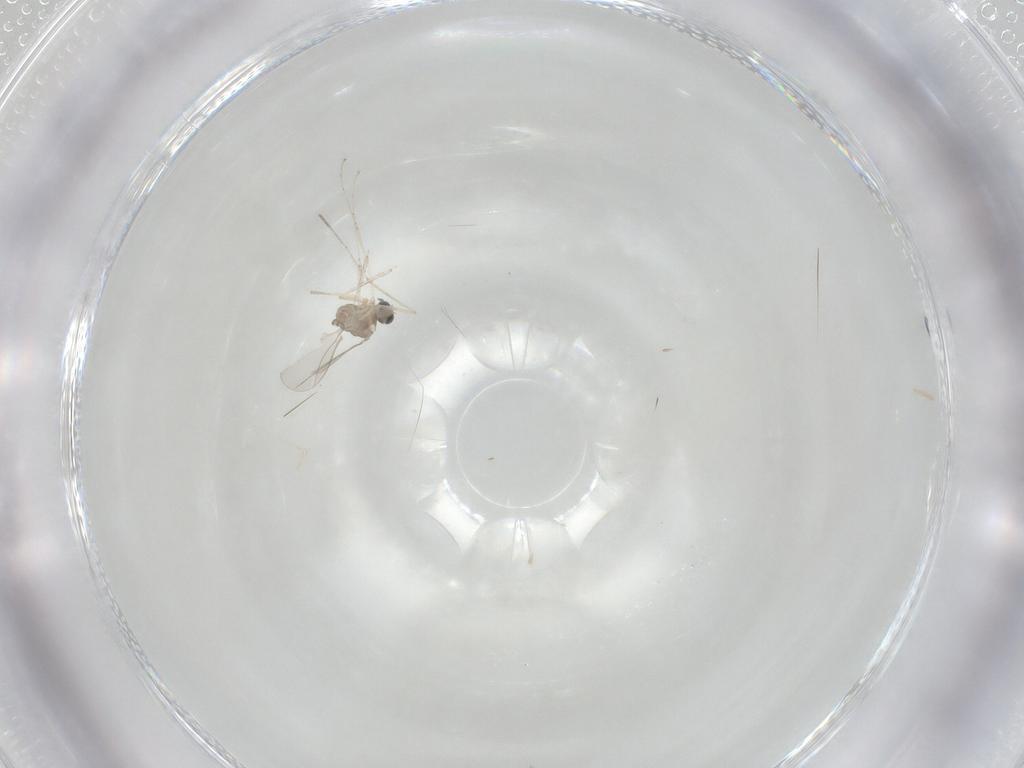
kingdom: Animalia
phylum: Arthropoda
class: Insecta
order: Diptera
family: Cecidomyiidae
